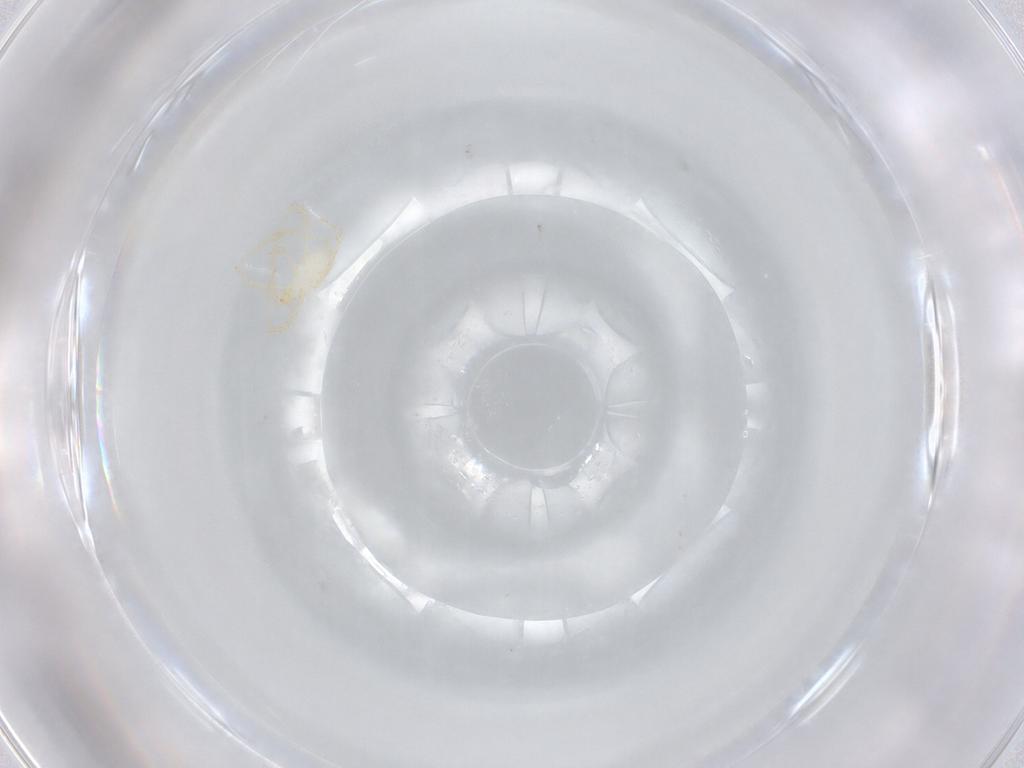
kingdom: Animalia
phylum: Arthropoda
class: Arachnida
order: Trombidiformes
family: Erythraeidae
